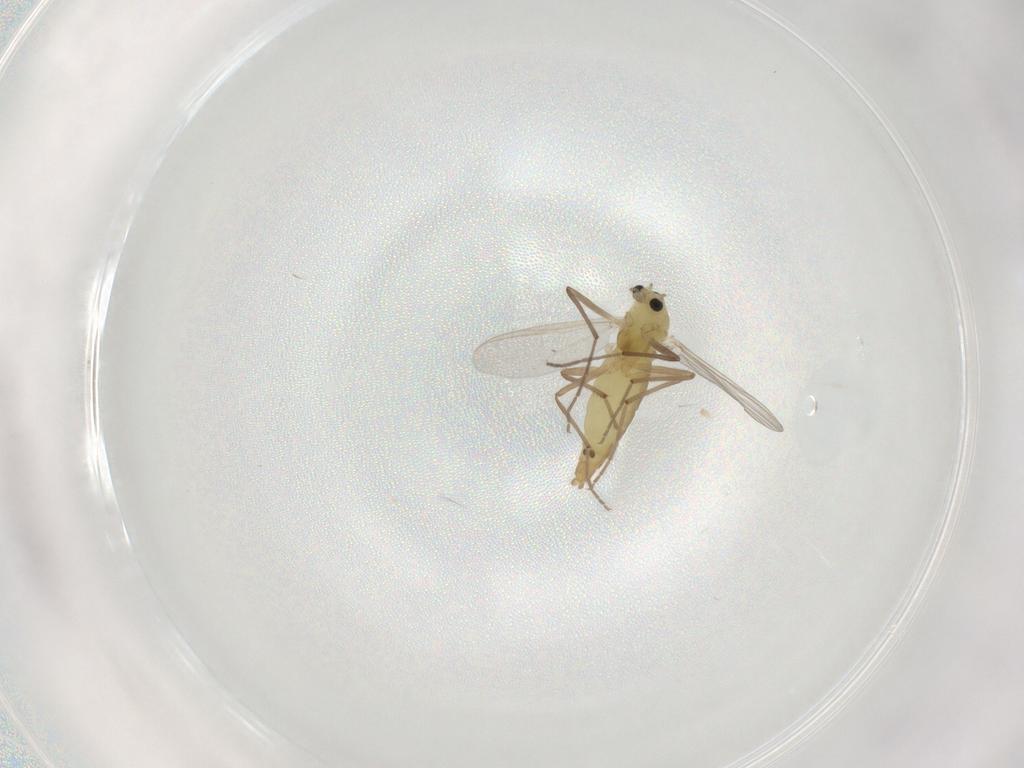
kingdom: Animalia
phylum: Arthropoda
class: Insecta
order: Diptera
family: Chironomidae
